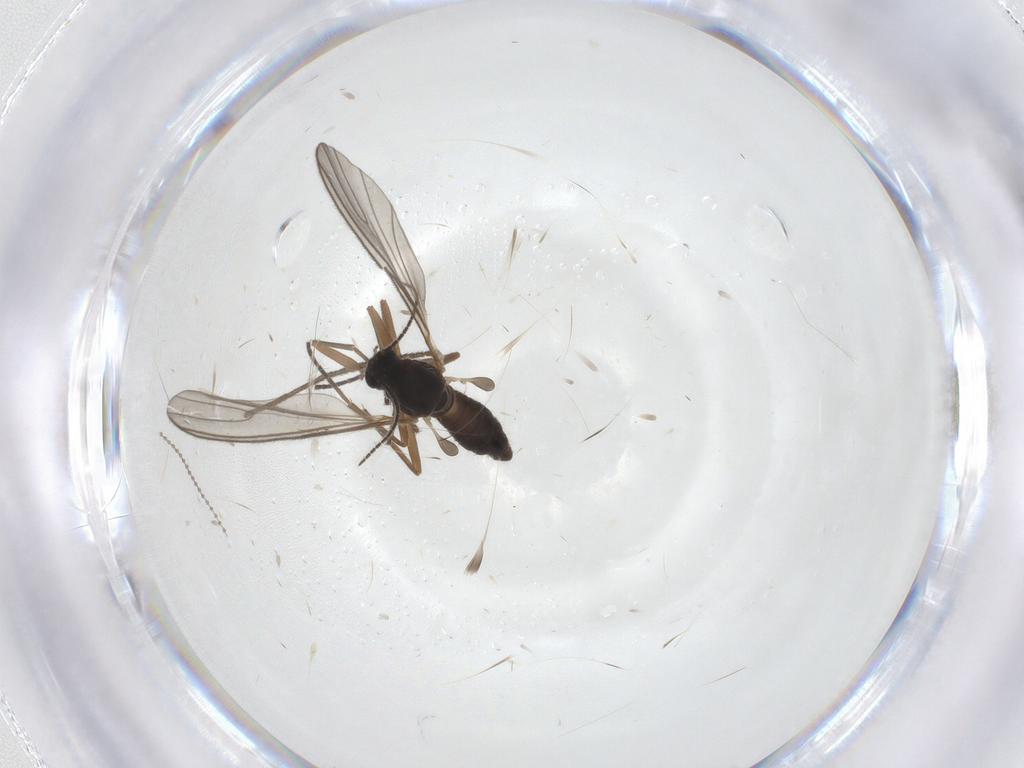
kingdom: Animalia
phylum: Arthropoda
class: Insecta
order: Diptera
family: Cecidomyiidae
